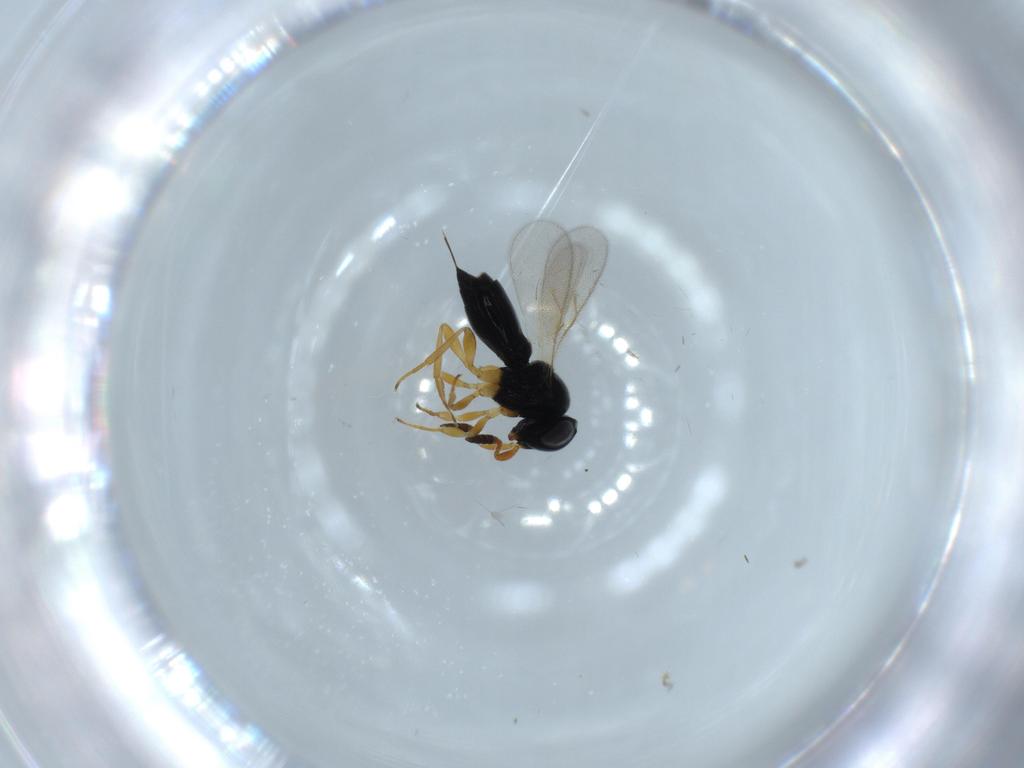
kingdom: Animalia
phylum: Arthropoda
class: Insecta
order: Hymenoptera
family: Scelionidae
